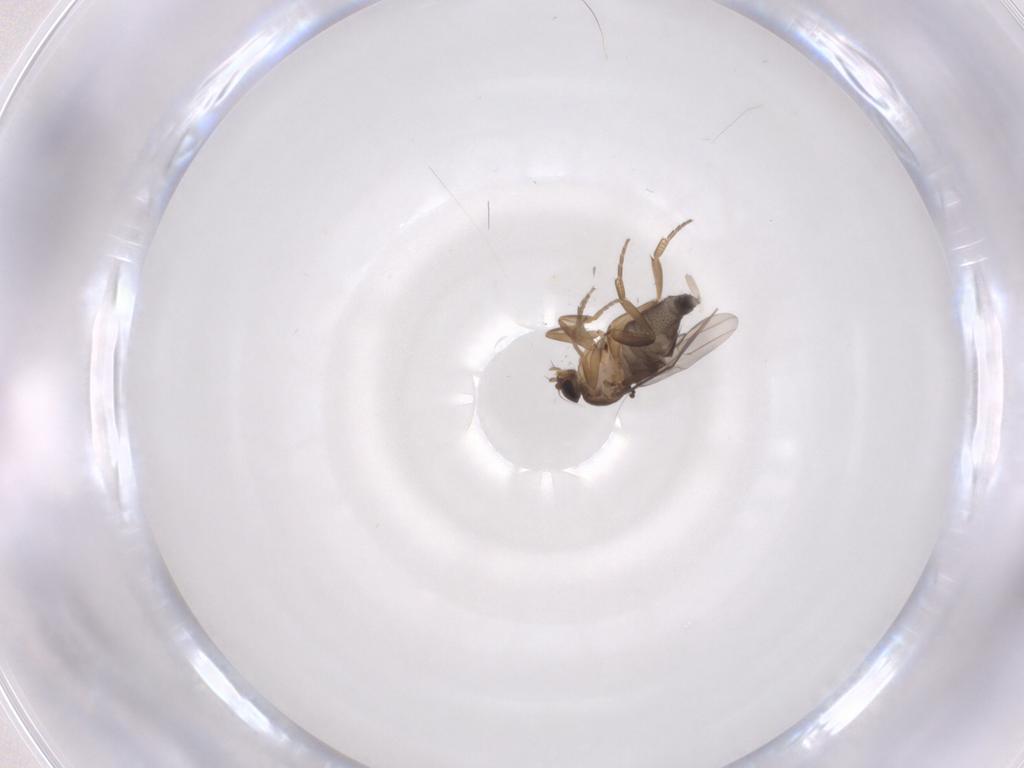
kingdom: Animalia
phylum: Arthropoda
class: Insecta
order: Diptera
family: Phoridae
